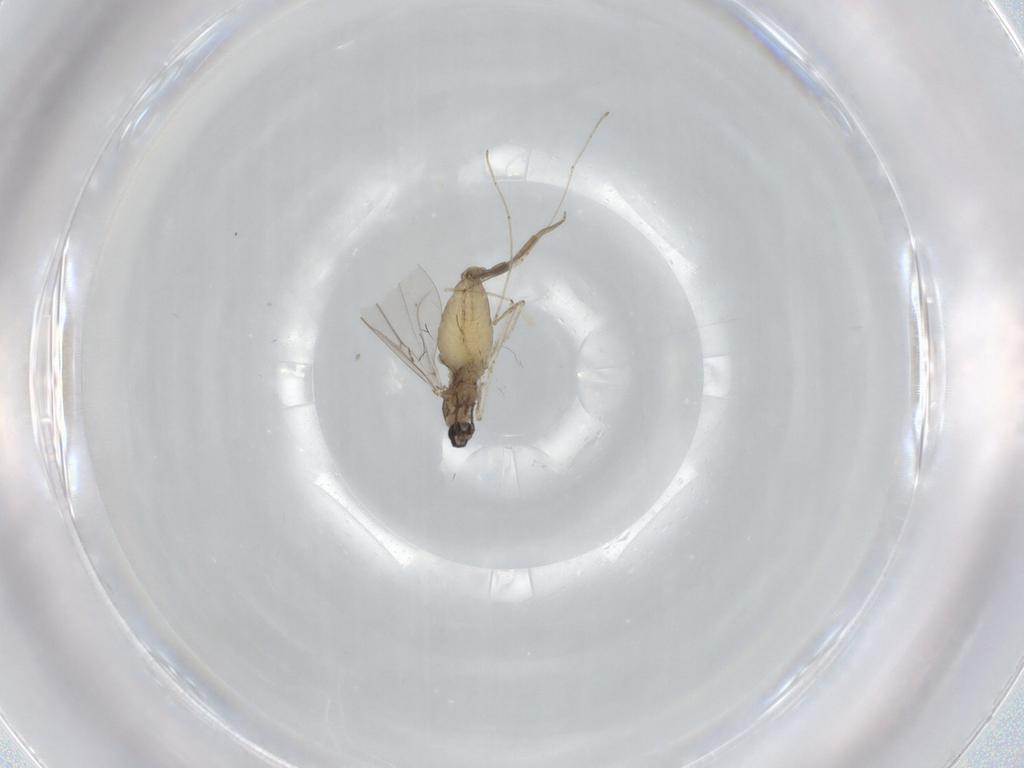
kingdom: Animalia
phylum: Arthropoda
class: Insecta
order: Diptera
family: Cecidomyiidae
